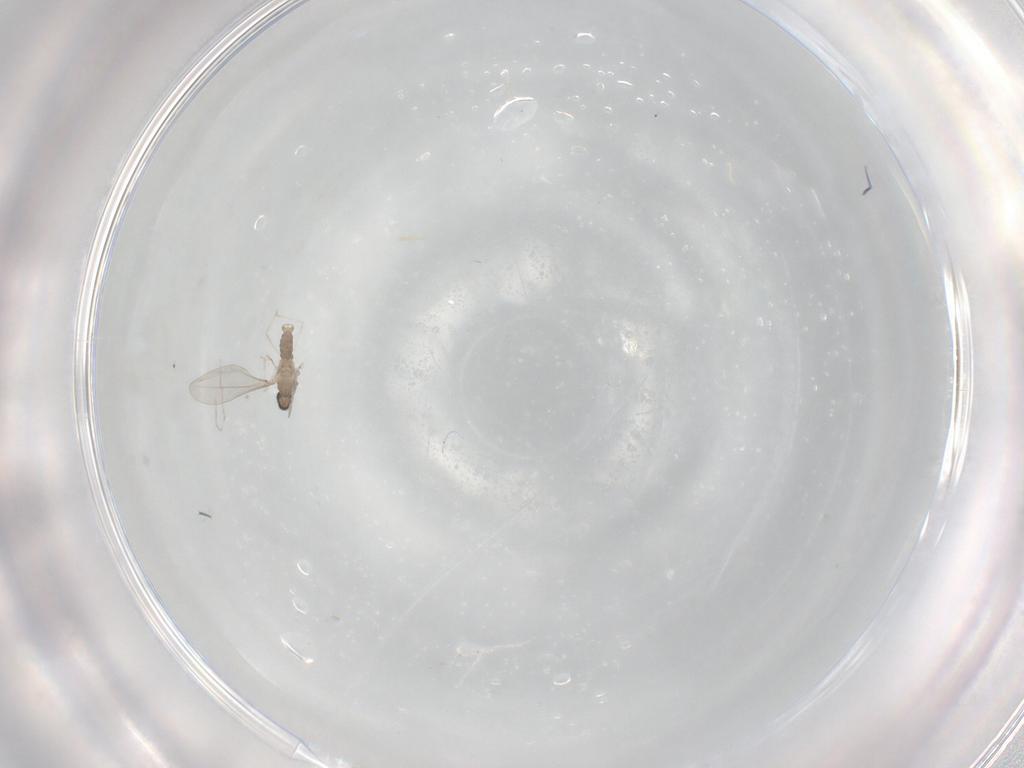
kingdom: Animalia
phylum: Arthropoda
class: Insecta
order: Diptera
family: Cecidomyiidae
